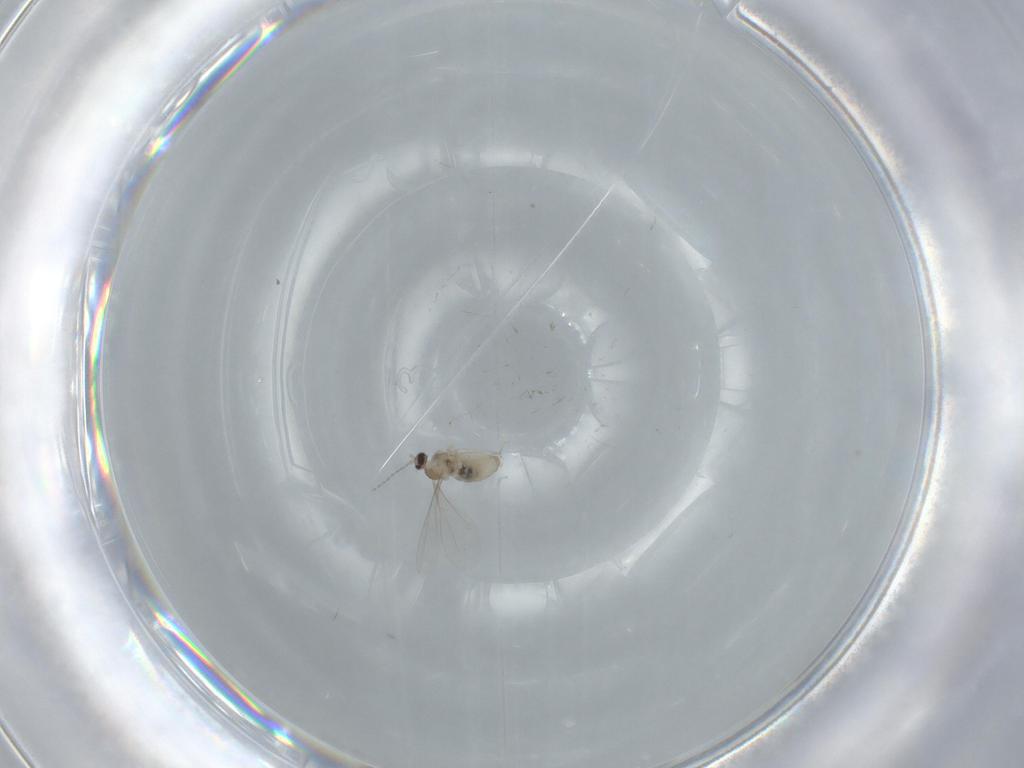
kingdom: Animalia
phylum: Arthropoda
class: Insecta
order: Diptera
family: Cecidomyiidae
